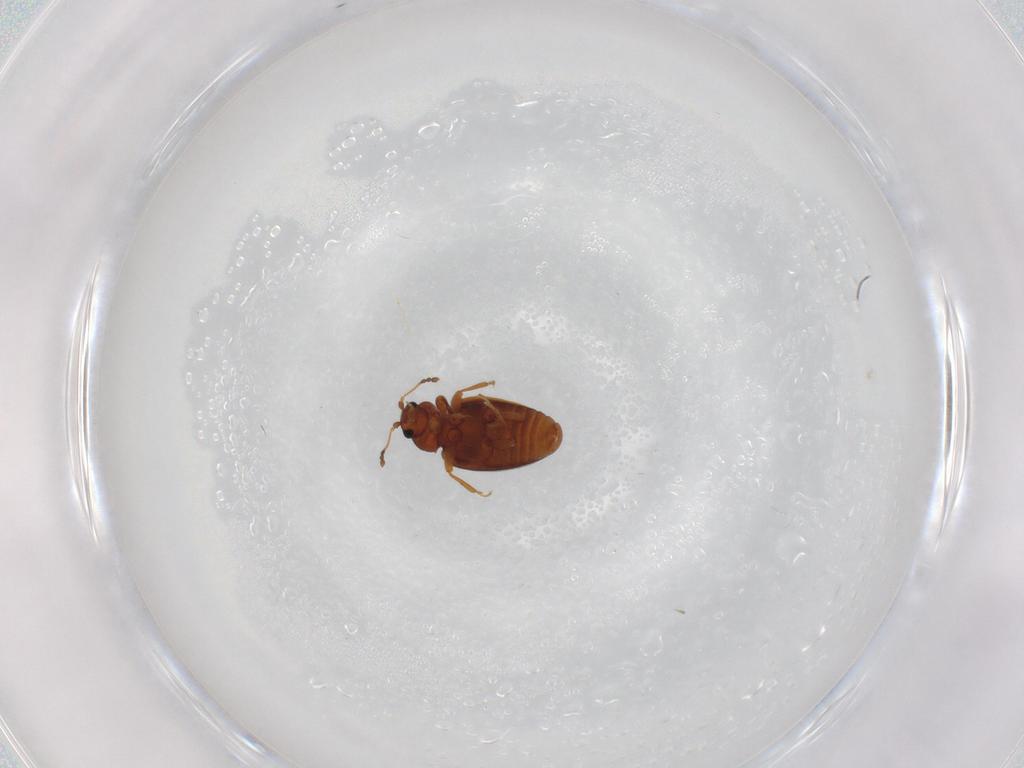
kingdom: Animalia
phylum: Arthropoda
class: Insecta
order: Coleoptera
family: Latridiidae
